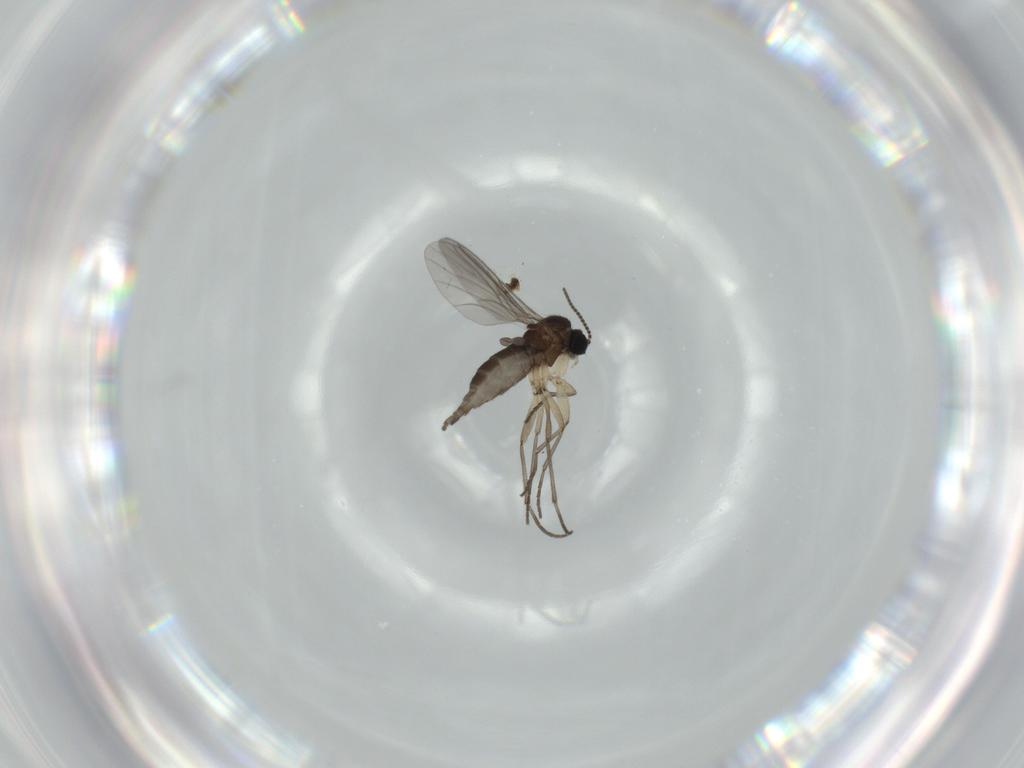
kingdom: Animalia
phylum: Arthropoda
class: Insecta
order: Diptera
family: Sciaridae
